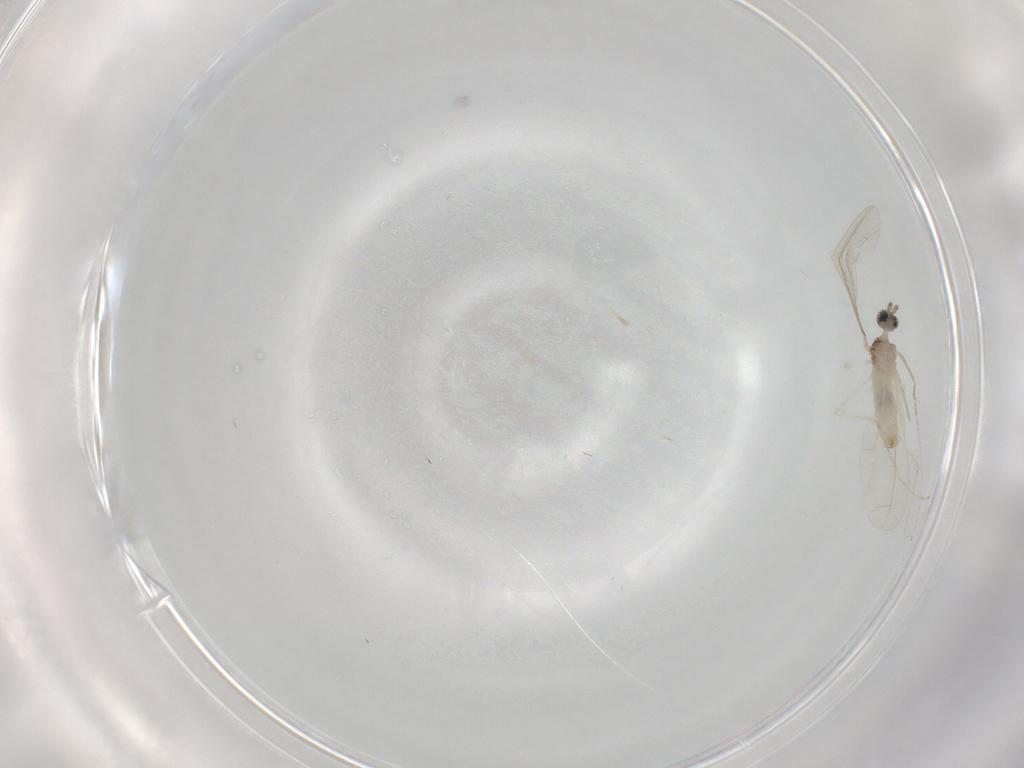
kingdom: Animalia
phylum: Arthropoda
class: Insecta
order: Diptera
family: Cecidomyiidae
